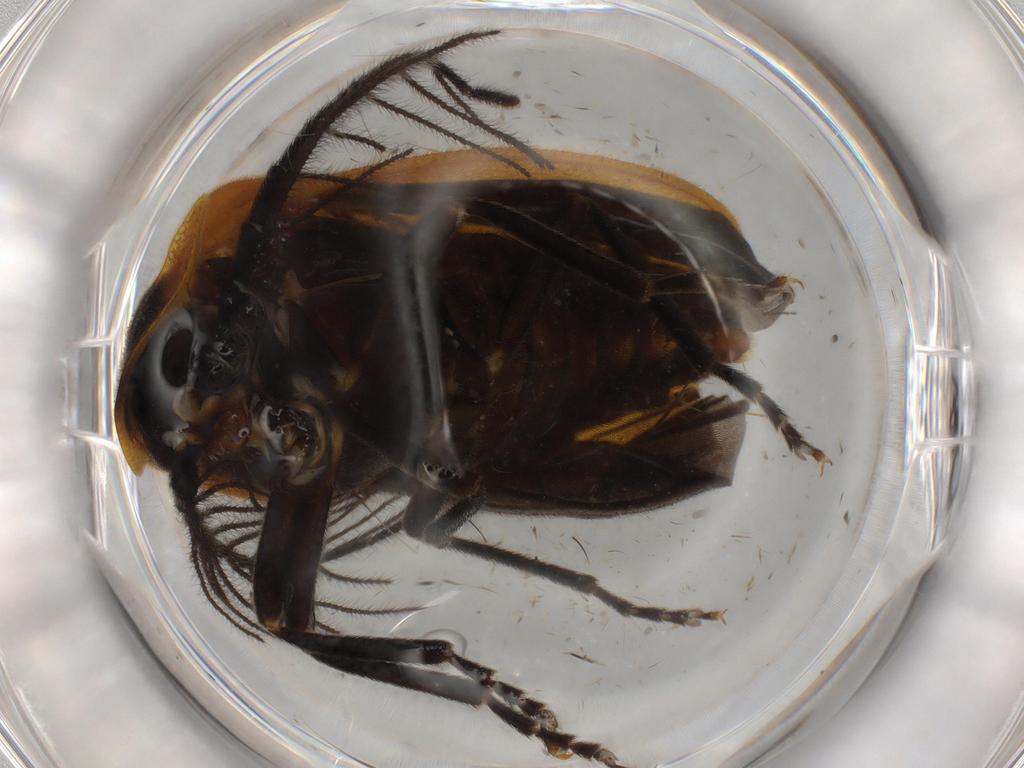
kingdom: Animalia
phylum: Arthropoda
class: Insecta
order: Coleoptera
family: Lampyridae
